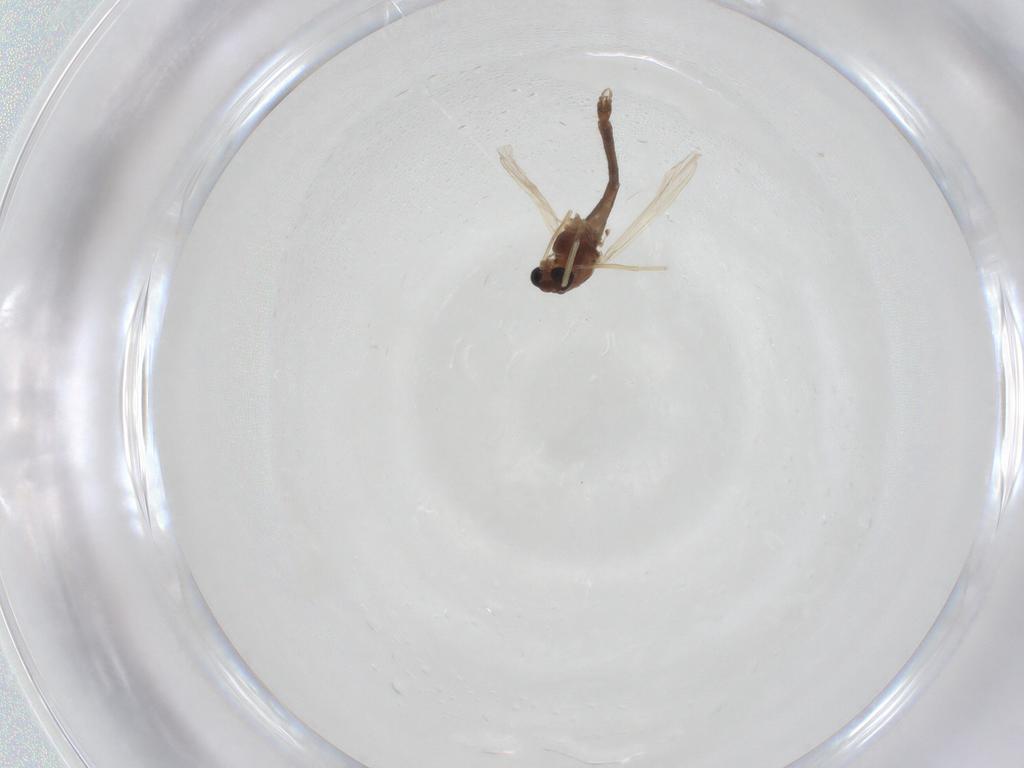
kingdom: Animalia
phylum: Arthropoda
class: Insecta
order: Diptera
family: Chironomidae
